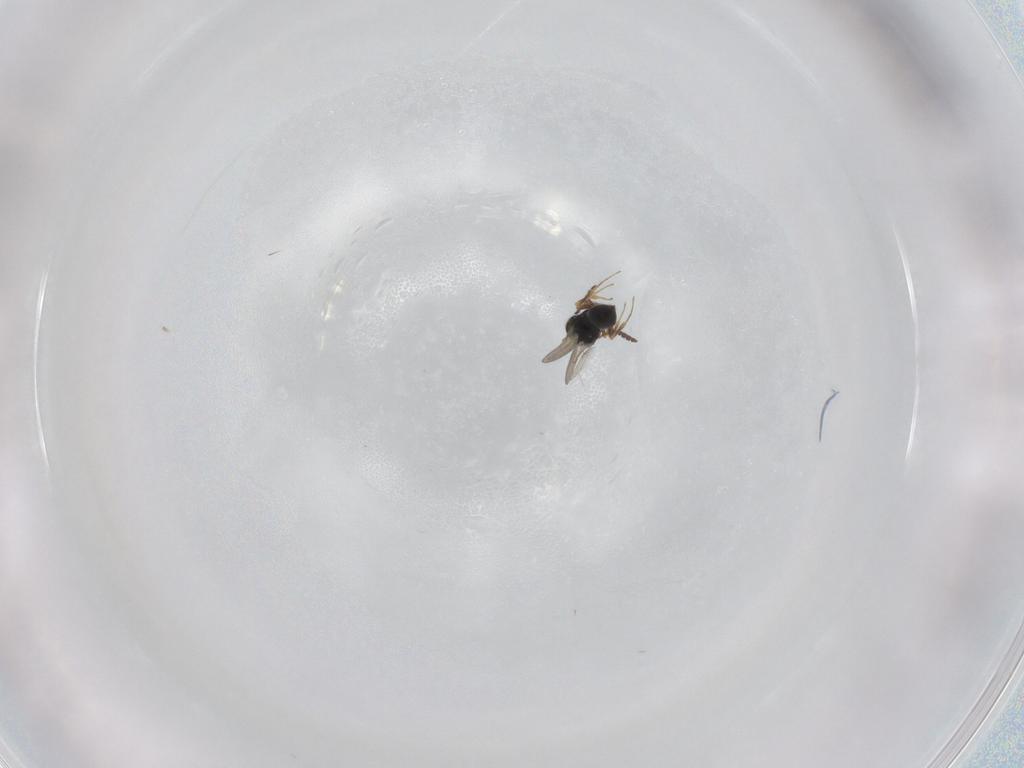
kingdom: Animalia
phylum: Arthropoda
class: Insecta
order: Hymenoptera
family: Scelionidae
